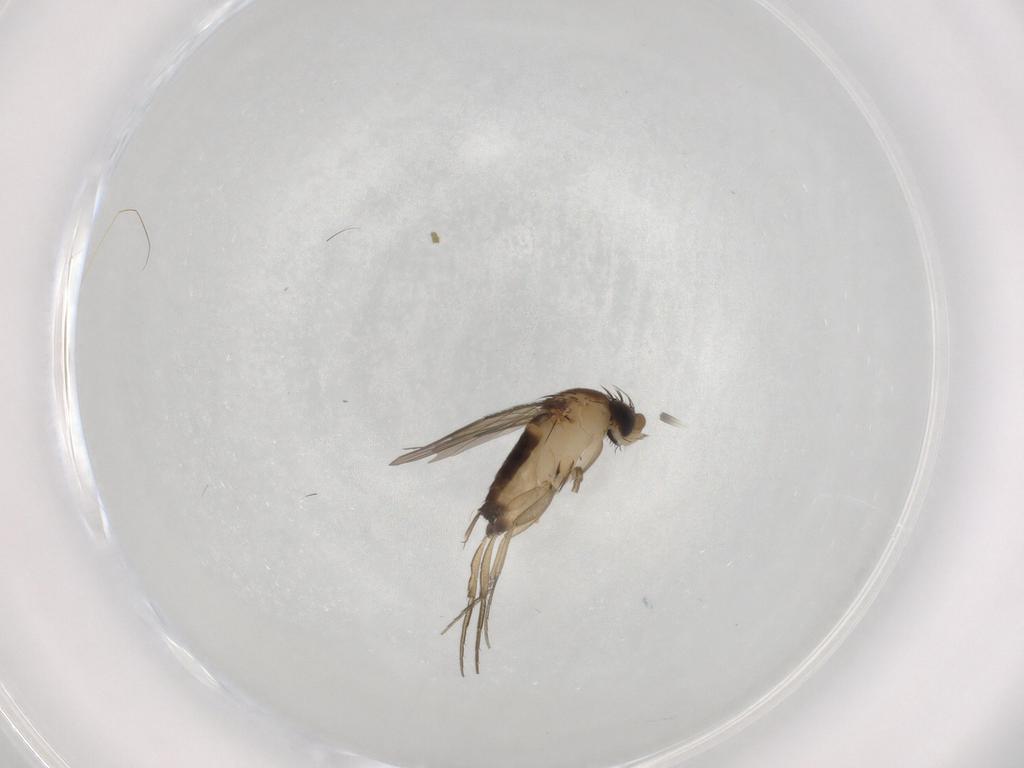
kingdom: Animalia
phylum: Arthropoda
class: Insecta
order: Diptera
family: Phoridae
